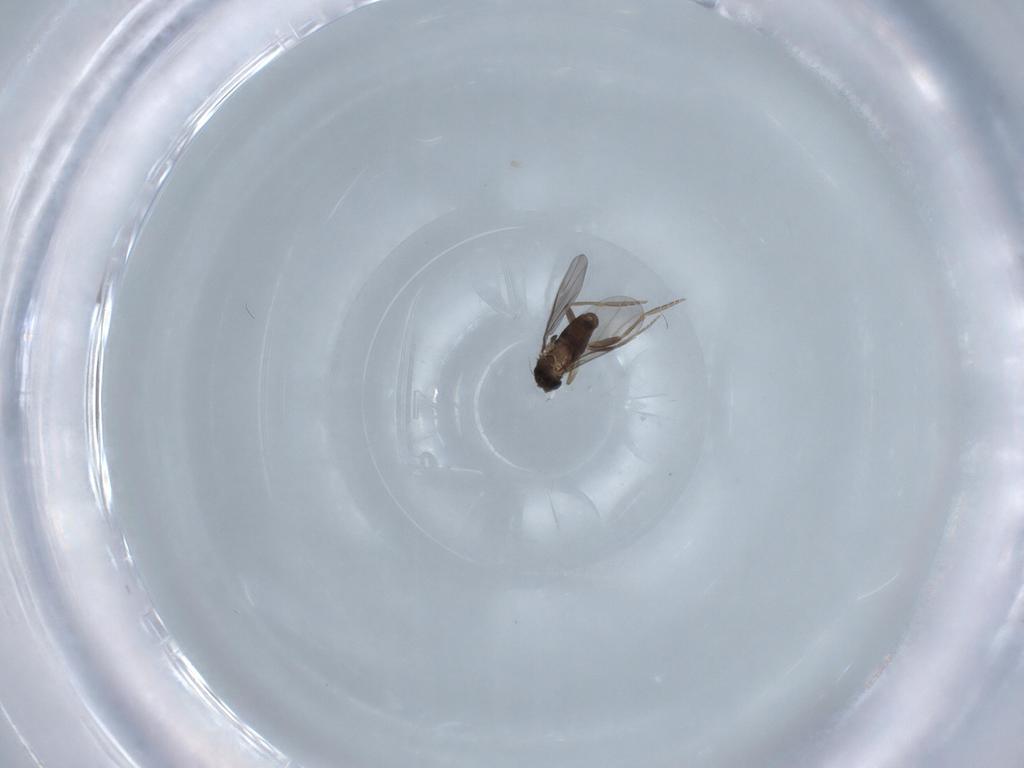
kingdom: Animalia
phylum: Arthropoda
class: Insecta
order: Diptera
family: Sciaridae
